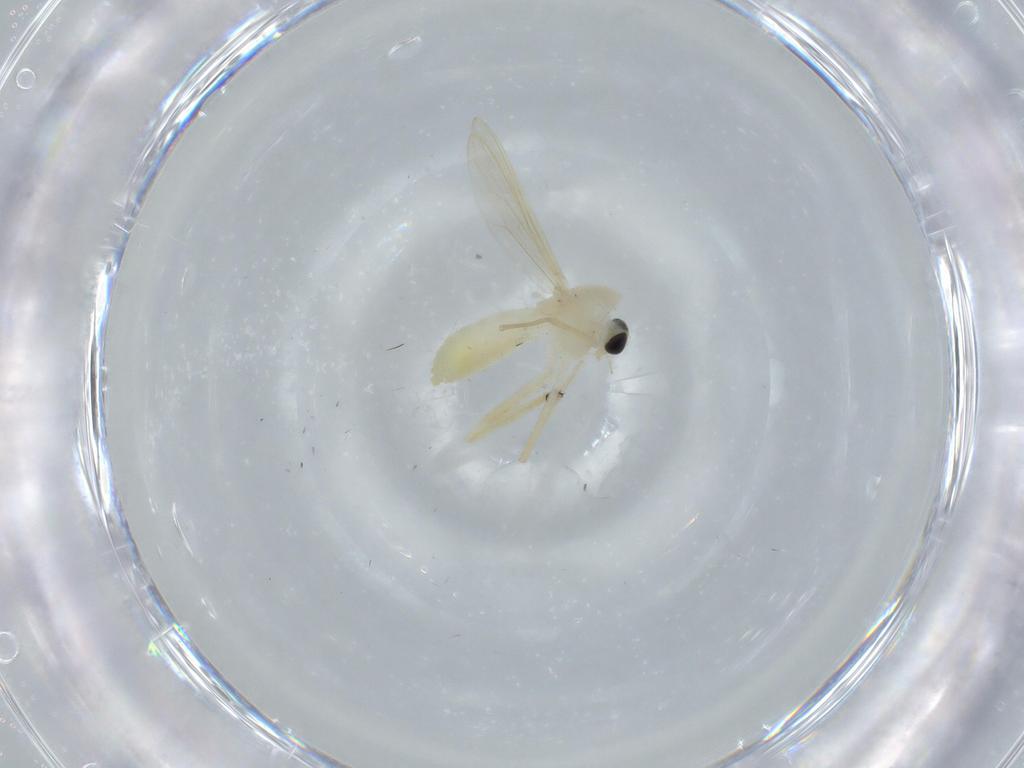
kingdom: Animalia
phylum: Arthropoda
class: Insecta
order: Diptera
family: Chironomidae
